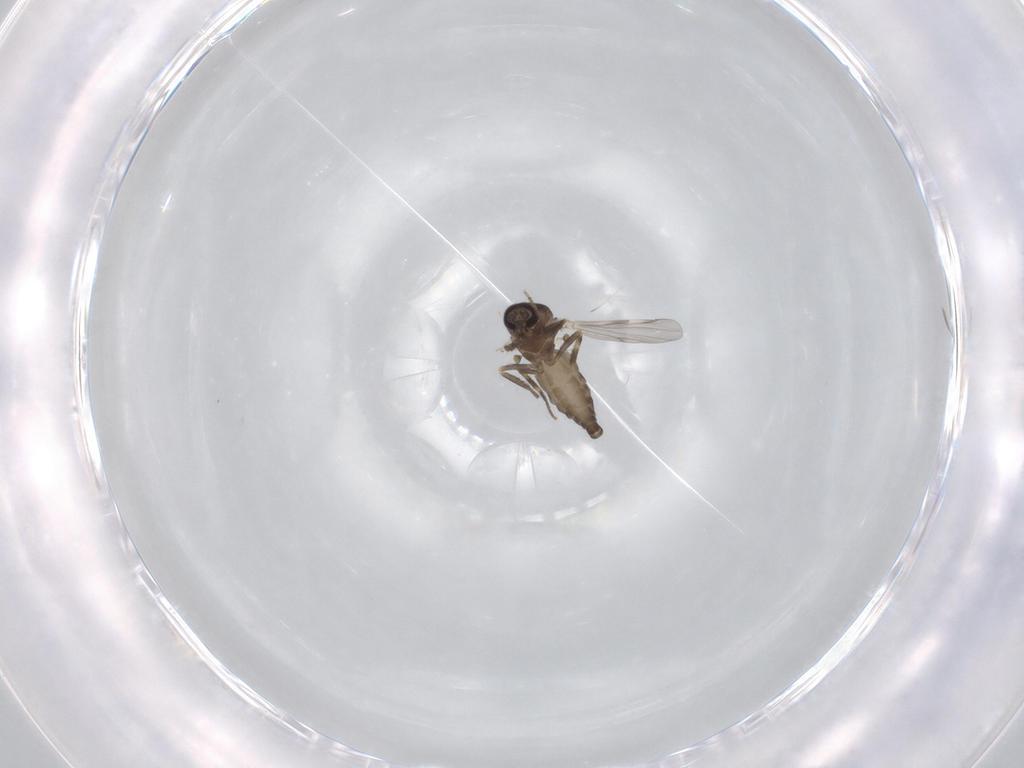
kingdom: Animalia
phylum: Arthropoda
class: Insecta
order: Diptera
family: Ceratopogonidae
